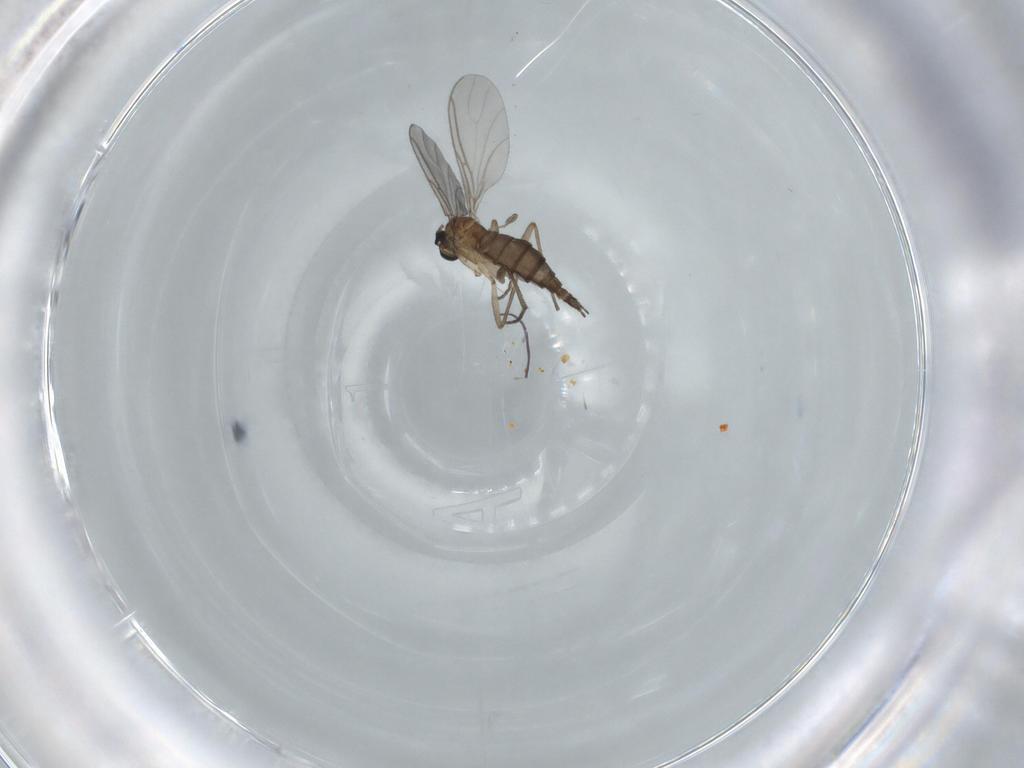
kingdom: Animalia
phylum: Arthropoda
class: Insecta
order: Diptera
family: Sciaridae
